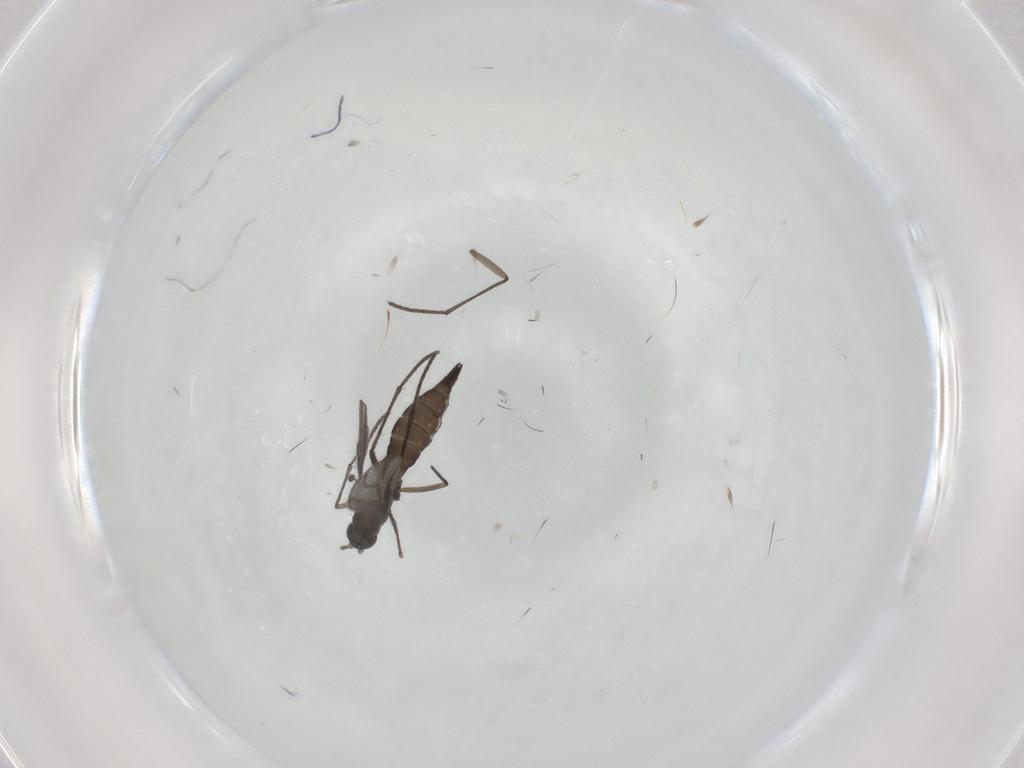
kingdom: Animalia
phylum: Arthropoda
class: Insecta
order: Diptera
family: Sciaridae
